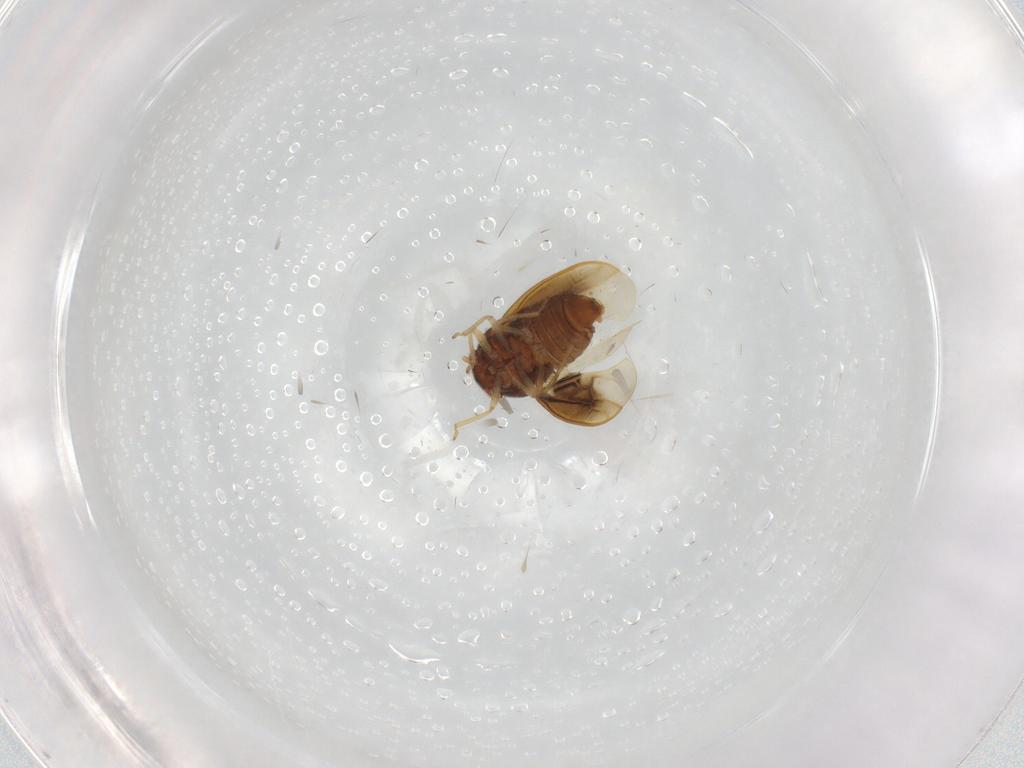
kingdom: Animalia
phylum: Arthropoda
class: Insecta
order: Hemiptera
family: Schizopteridae
